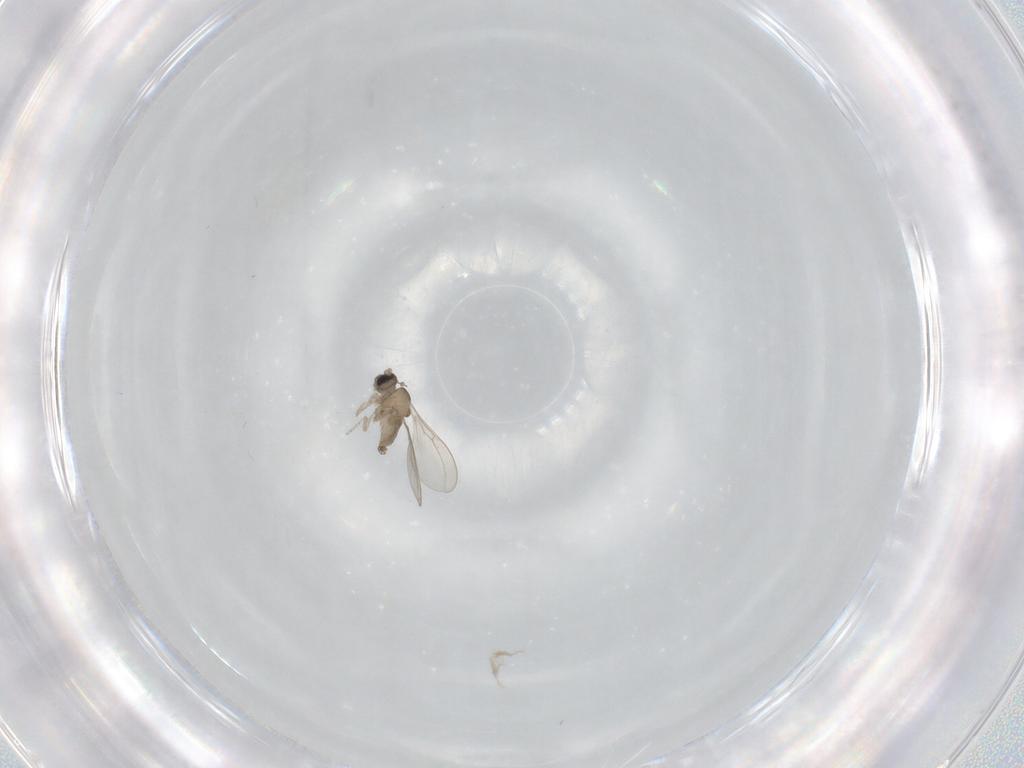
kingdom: Animalia
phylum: Arthropoda
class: Insecta
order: Diptera
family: Cecidomyiidae
